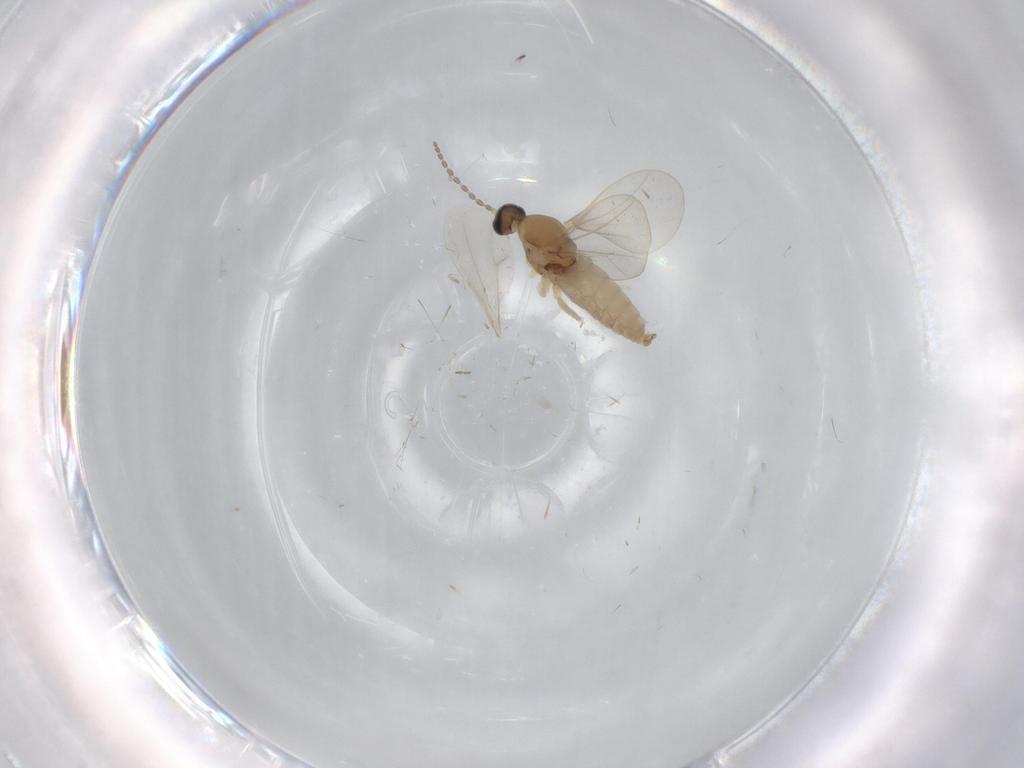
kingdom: Animalia
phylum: Arthropoda
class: Insecta
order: Diptera
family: Cecidomyiidae
